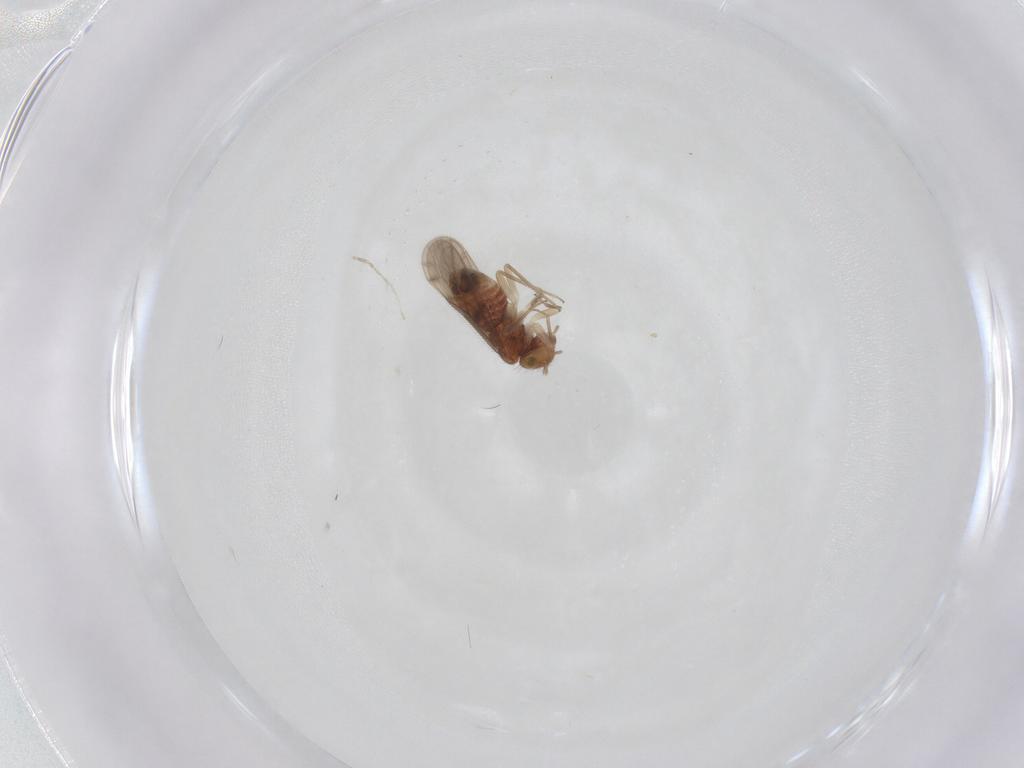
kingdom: Animalia
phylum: Arthropoda
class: Insecta
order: Psocodea
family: Ectopsocidae
